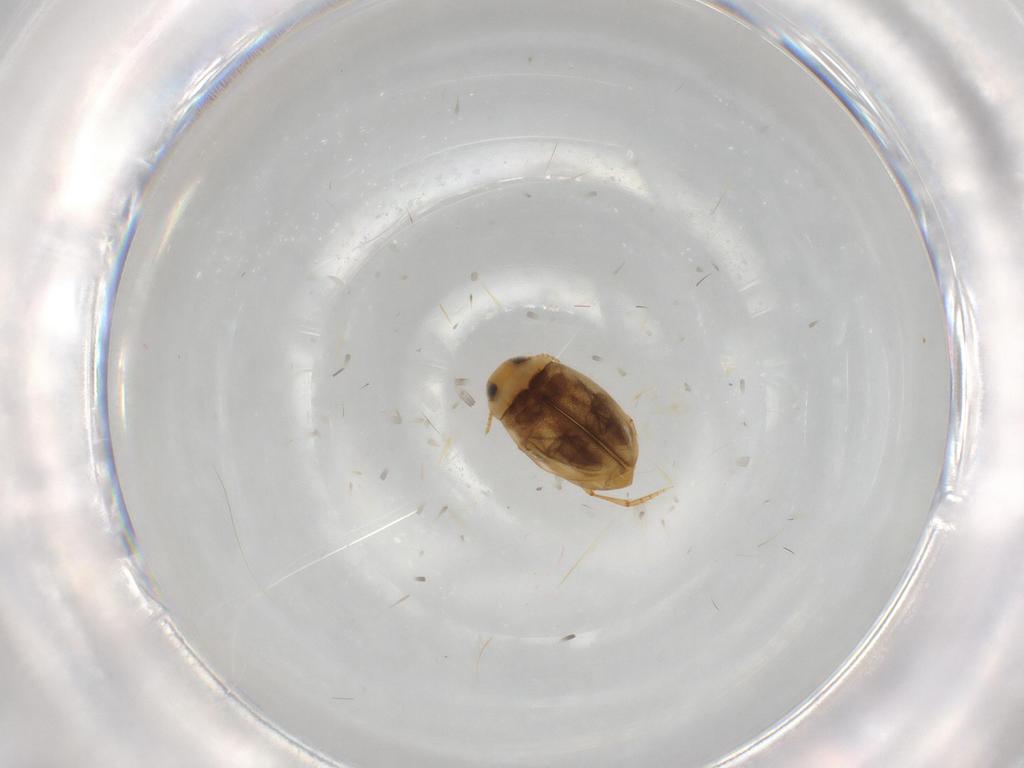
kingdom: Animalia
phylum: Arthropoda
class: Insecta
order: Coleoptera
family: Dytiscidae
